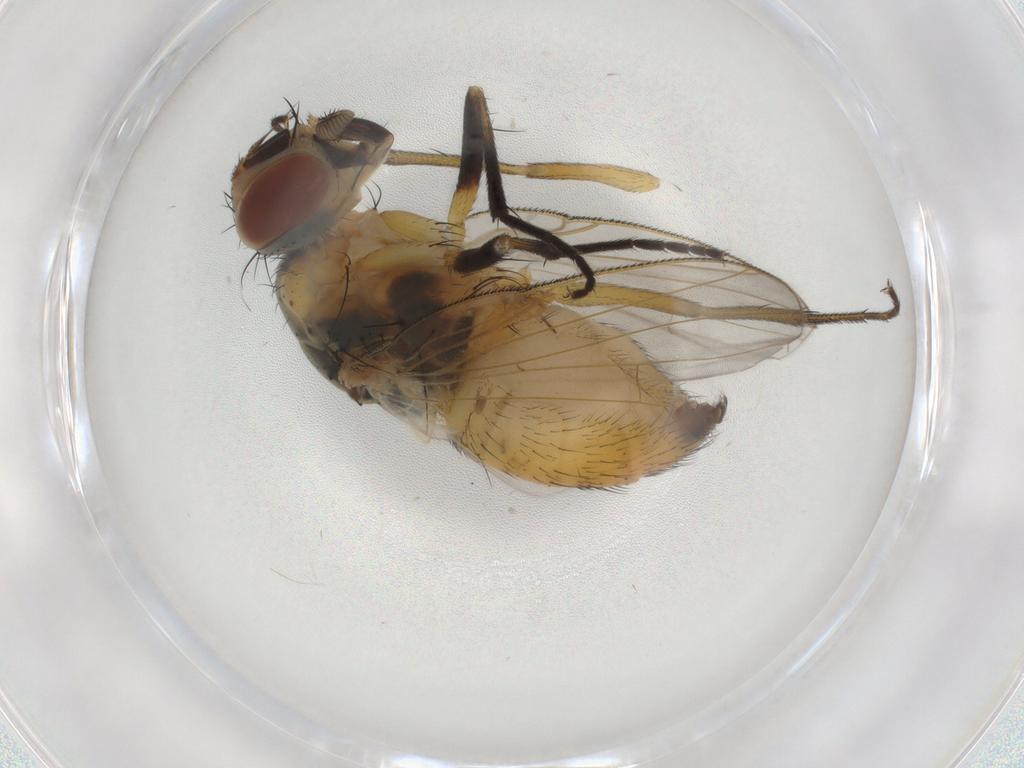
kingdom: Animalia
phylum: Arthropoda
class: Insecta
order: Diptera
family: Muscidae
